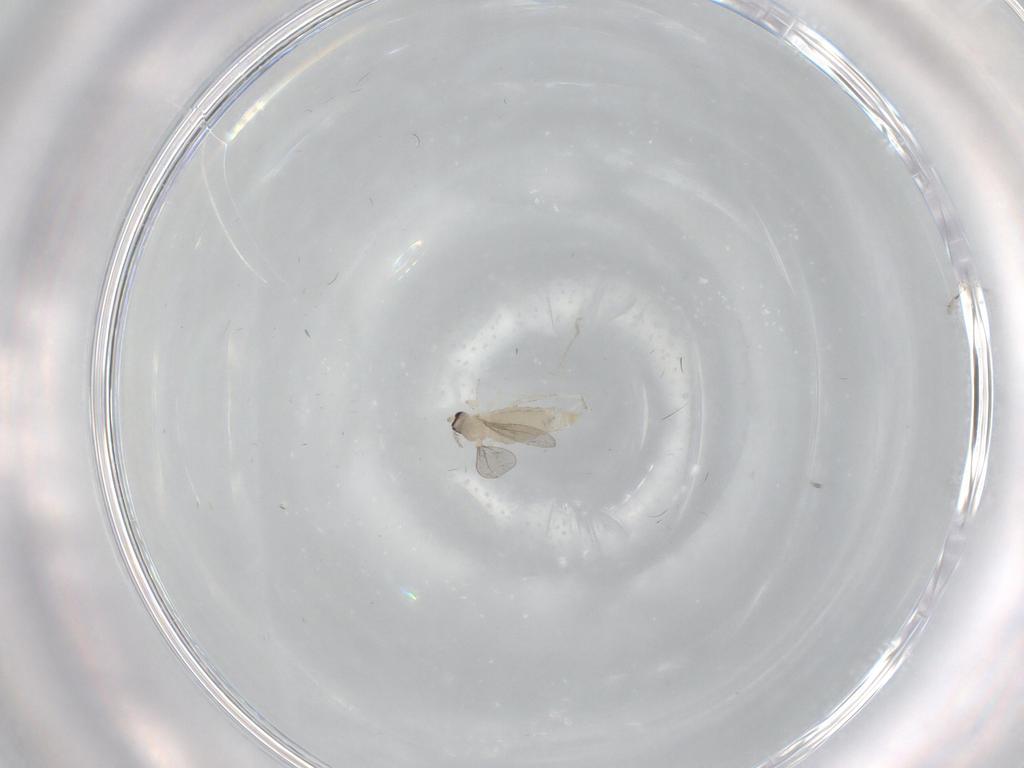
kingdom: Animalia
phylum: Arthropoda
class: Insecta
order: Diptera
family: Cecidomyiidae
